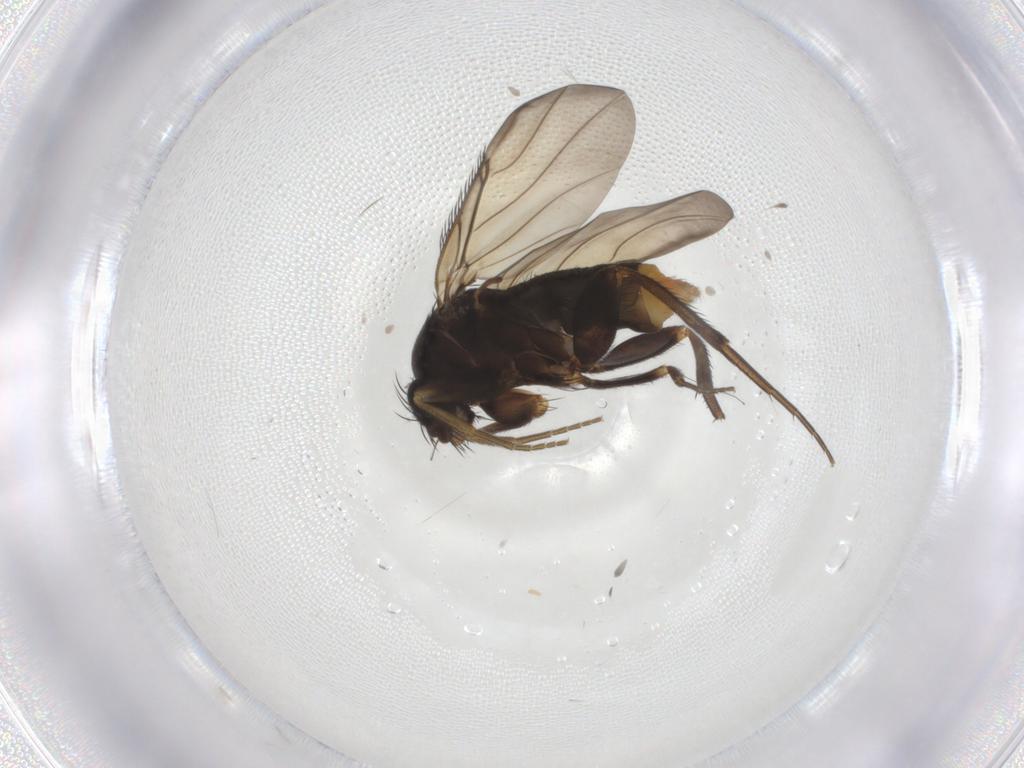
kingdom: Animalia
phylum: Arthropoda
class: Insecta
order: Diptera
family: Phoridae
